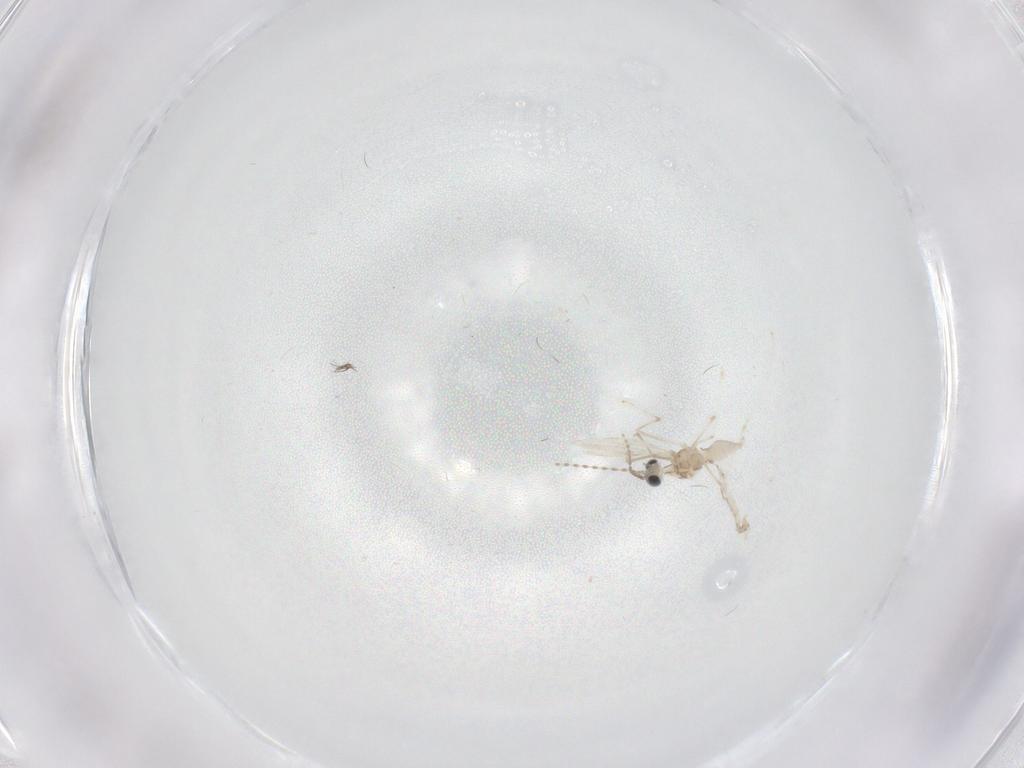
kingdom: Animalia
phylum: Arthropoda
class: Insecta
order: Diptera
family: Cecidomyiidae
